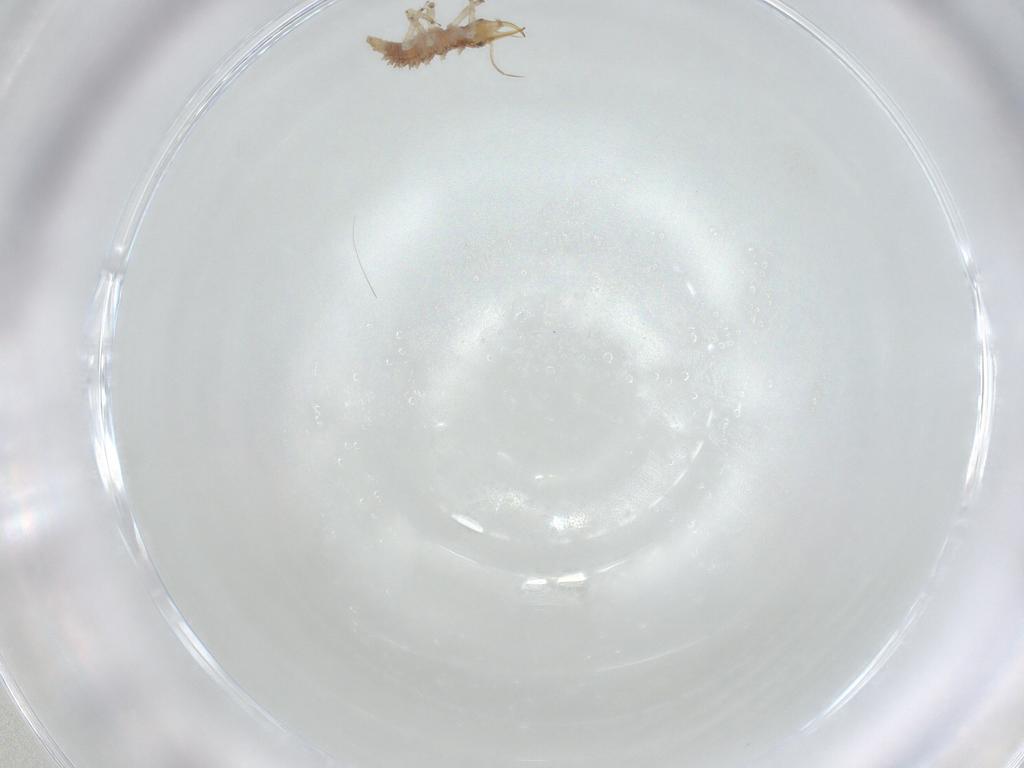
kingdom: Animalia
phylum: Arthropoda
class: Insecta
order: Neuroptera
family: Chrysopidae
